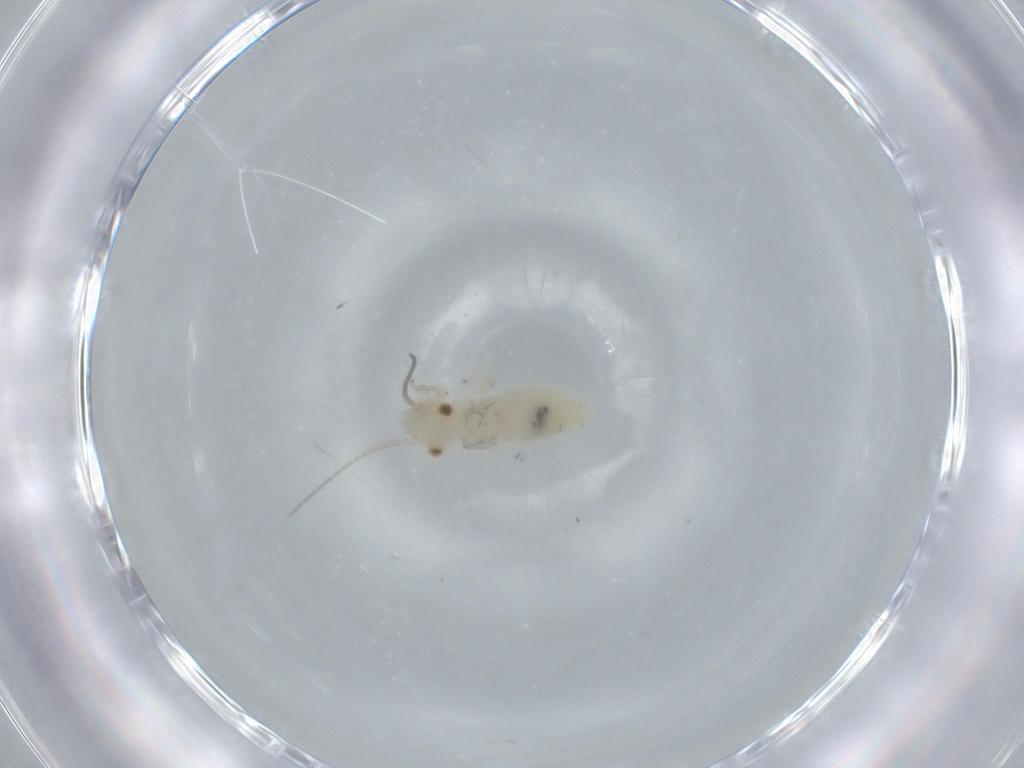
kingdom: Animalia
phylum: Arthropoda
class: Insecta
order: Psocodea
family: Caeciliusidae
